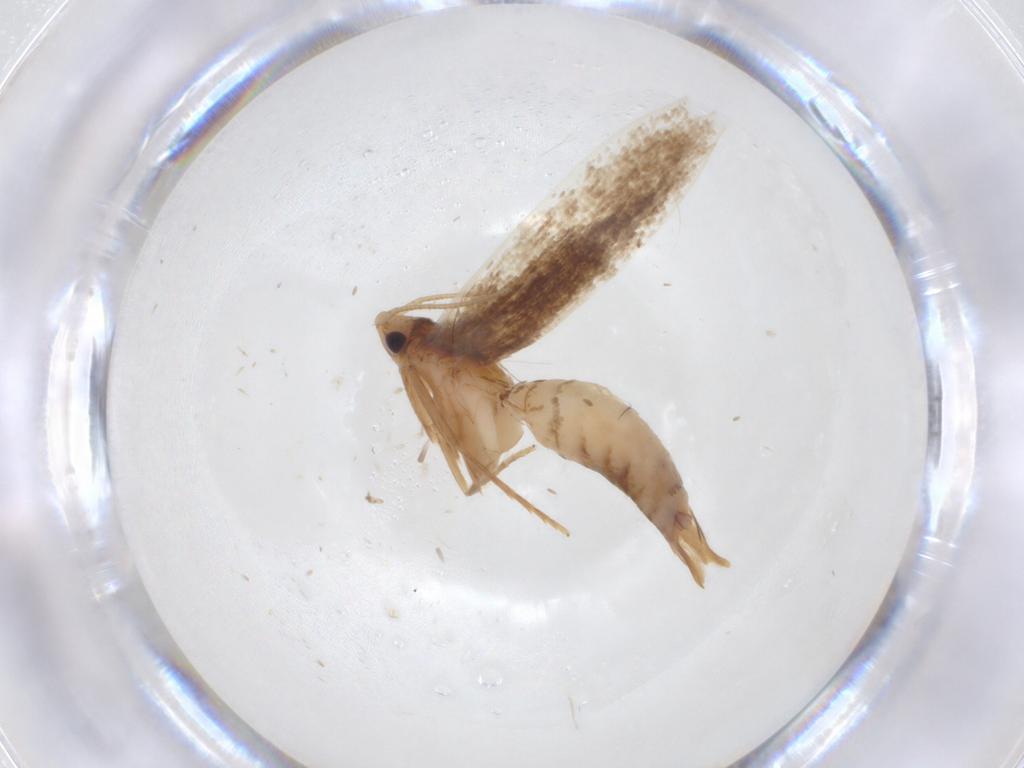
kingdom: Animalia
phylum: Arthropoda
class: Insecta
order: Lepidoptera
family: Tineidae
